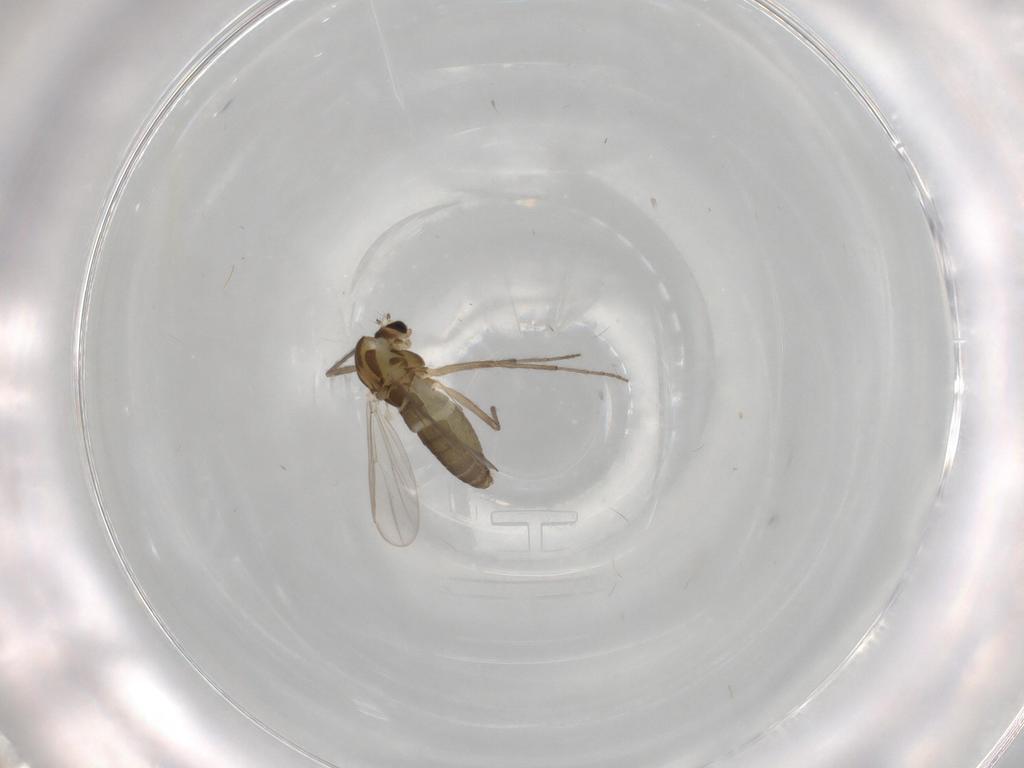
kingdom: Animalia
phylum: Arthropoda
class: Insecta
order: Diptera
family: Chironomidae
